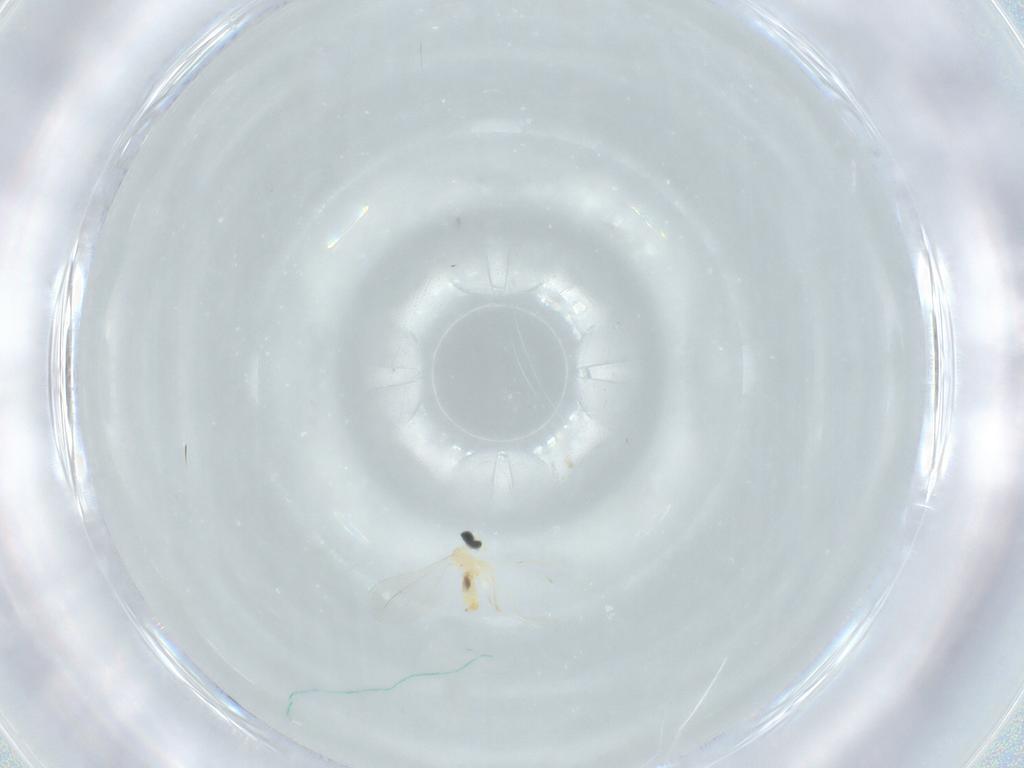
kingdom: Animalia
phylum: Arthropoda
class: Insecta
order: Diptera
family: Cecidomyiidae
